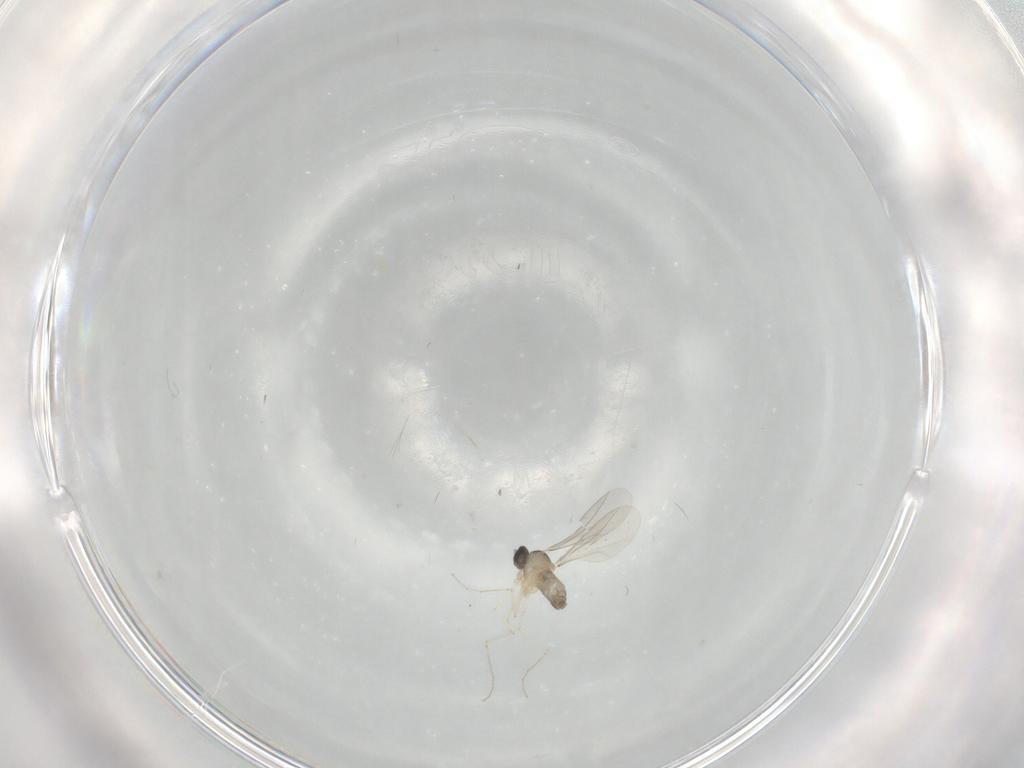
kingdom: Animalia
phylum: Arthropoda
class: Insecta
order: Diptera
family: Cecidomyiidae
